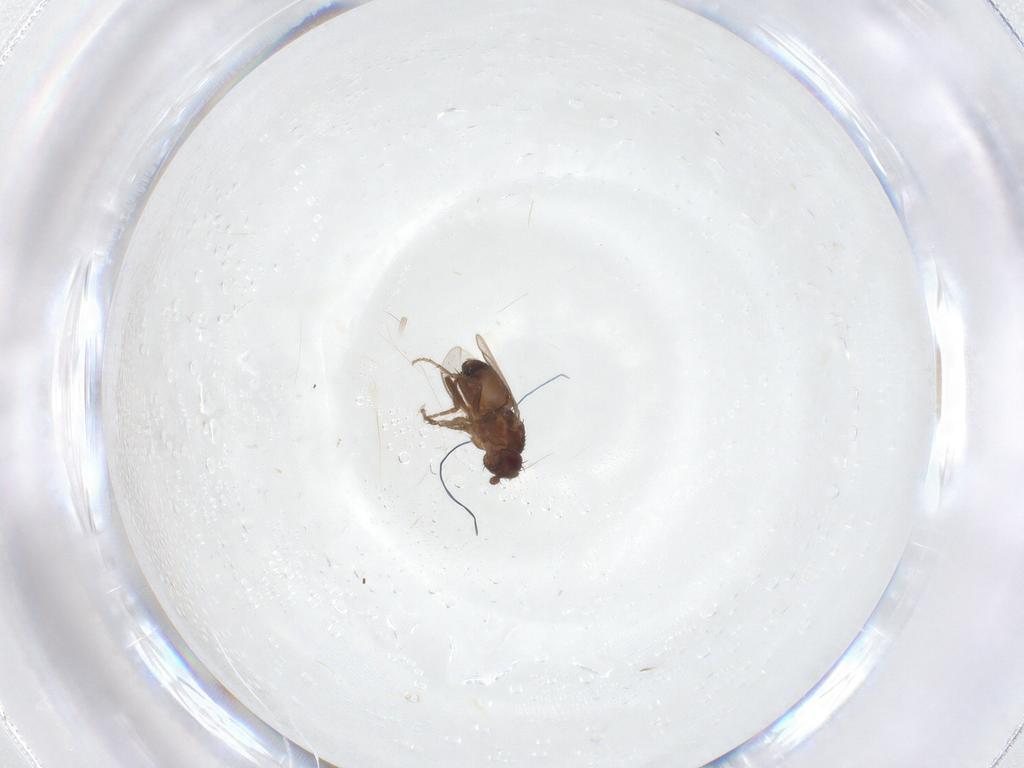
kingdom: Animalia
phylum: Arthropoda
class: Insecta
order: Diptera
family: Sphaeroceridae
